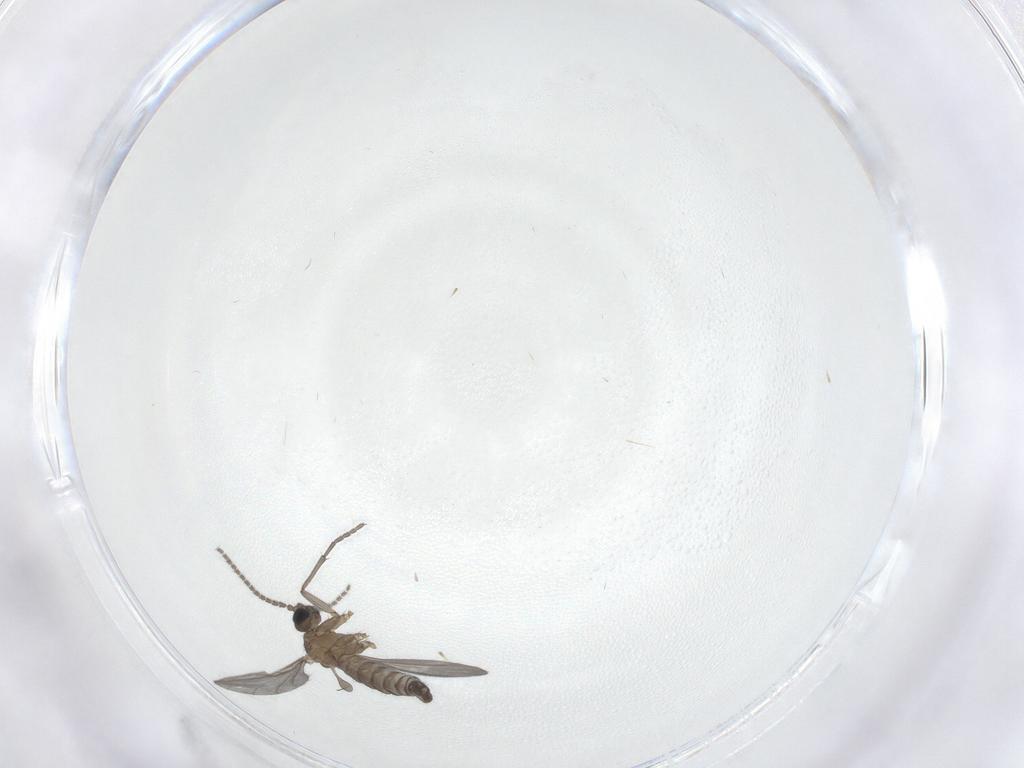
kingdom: Animalia
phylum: Arthropoda
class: Insecta
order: Diptera
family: Sciaridae
